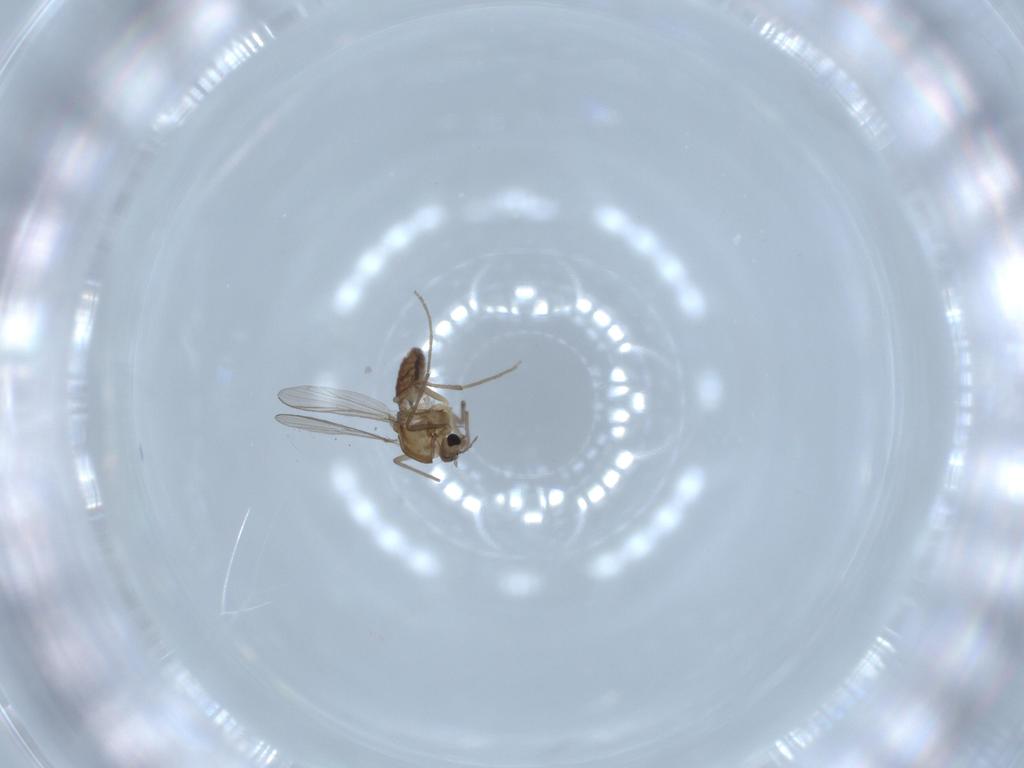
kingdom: Animalia
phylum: Arthropoda
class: Insecta
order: Diptera
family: Chironomidae
